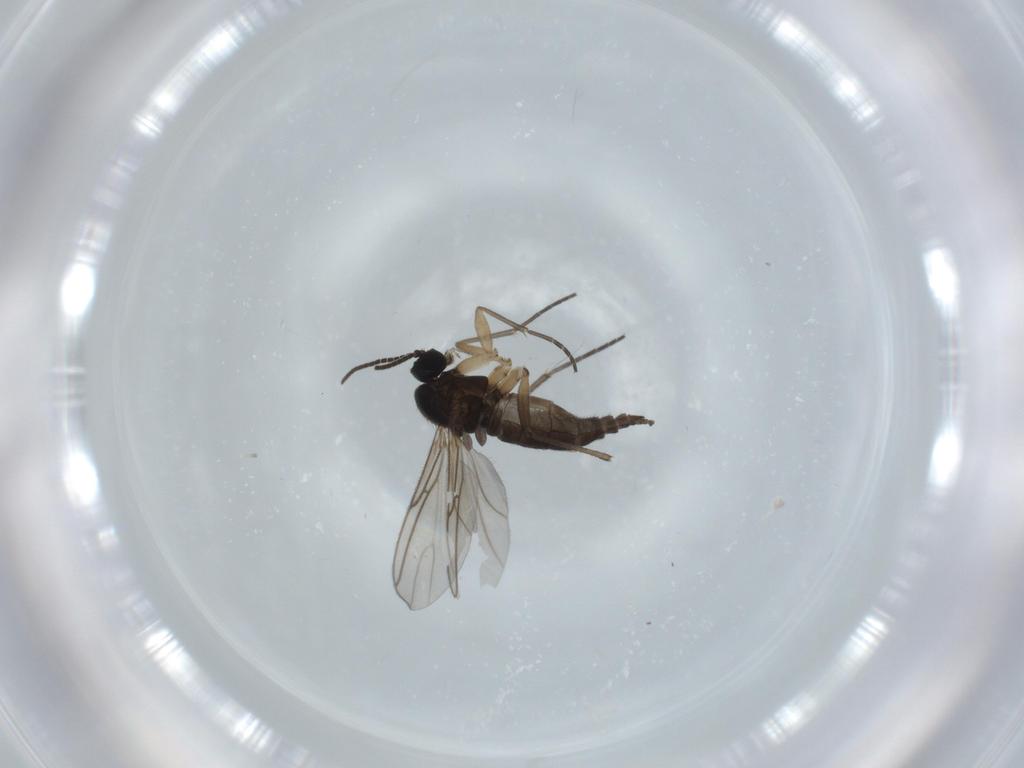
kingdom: Animalia
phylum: Arthropoda
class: Insecta
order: Diptera
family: Sciaridae
